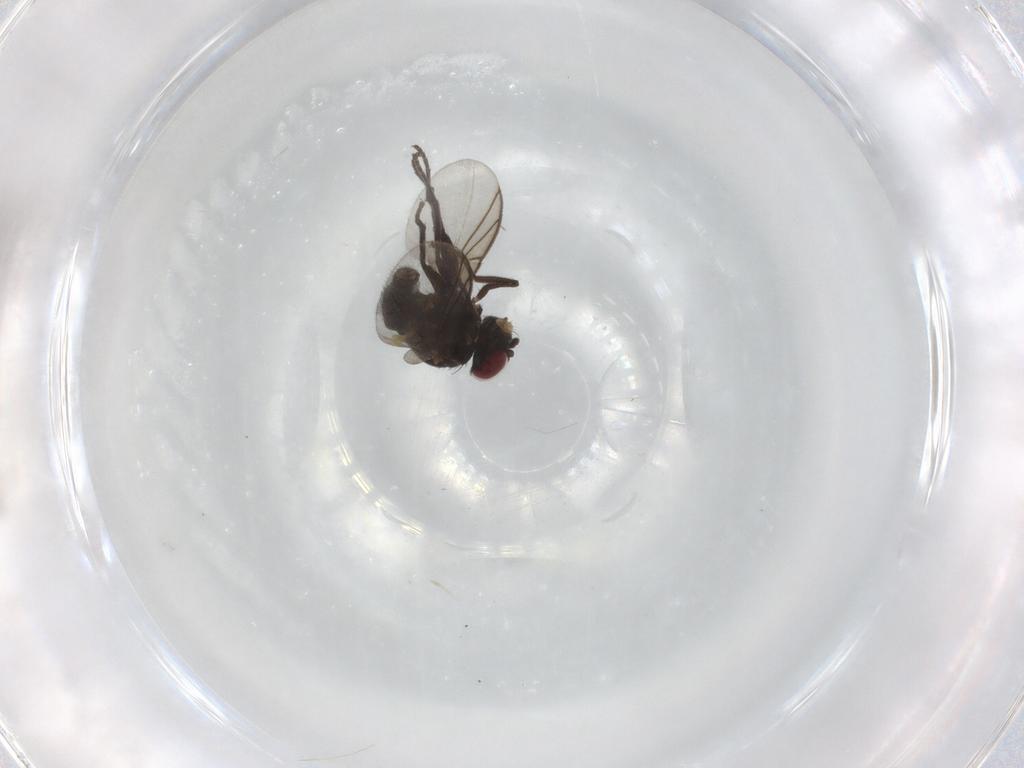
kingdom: Animalia
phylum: Arthropoda
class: Insecta
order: Diptera
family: Agromyzidae
